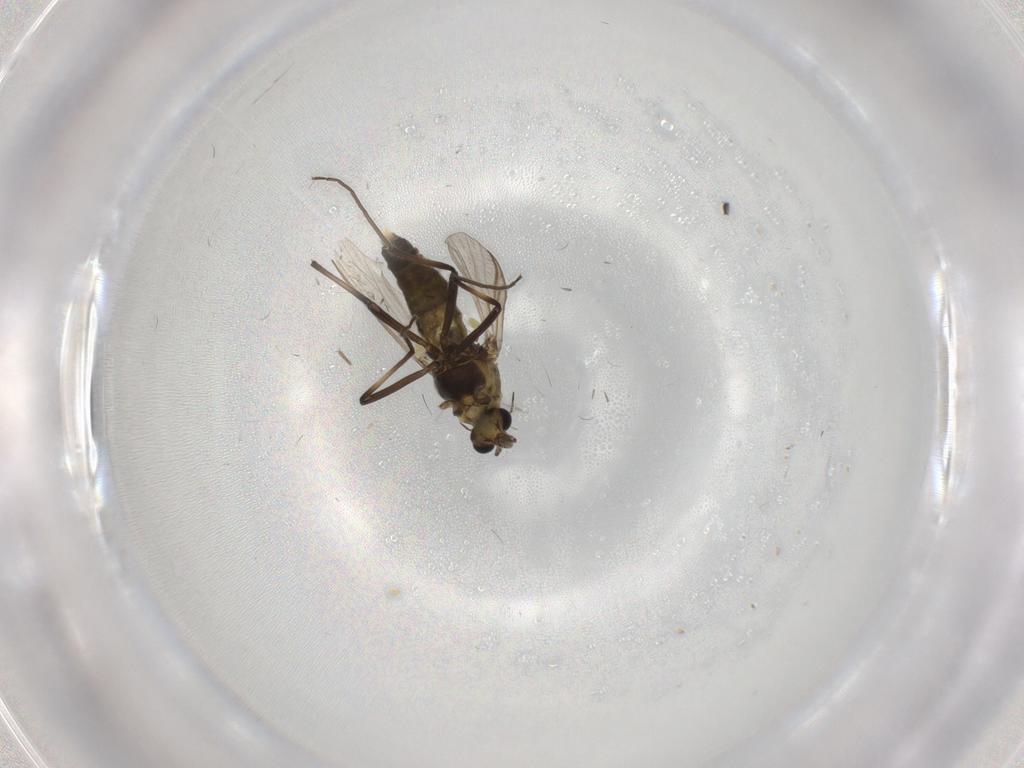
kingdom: Animalia
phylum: Arthropoda
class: Insecta
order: Diptera
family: Chironomidae
